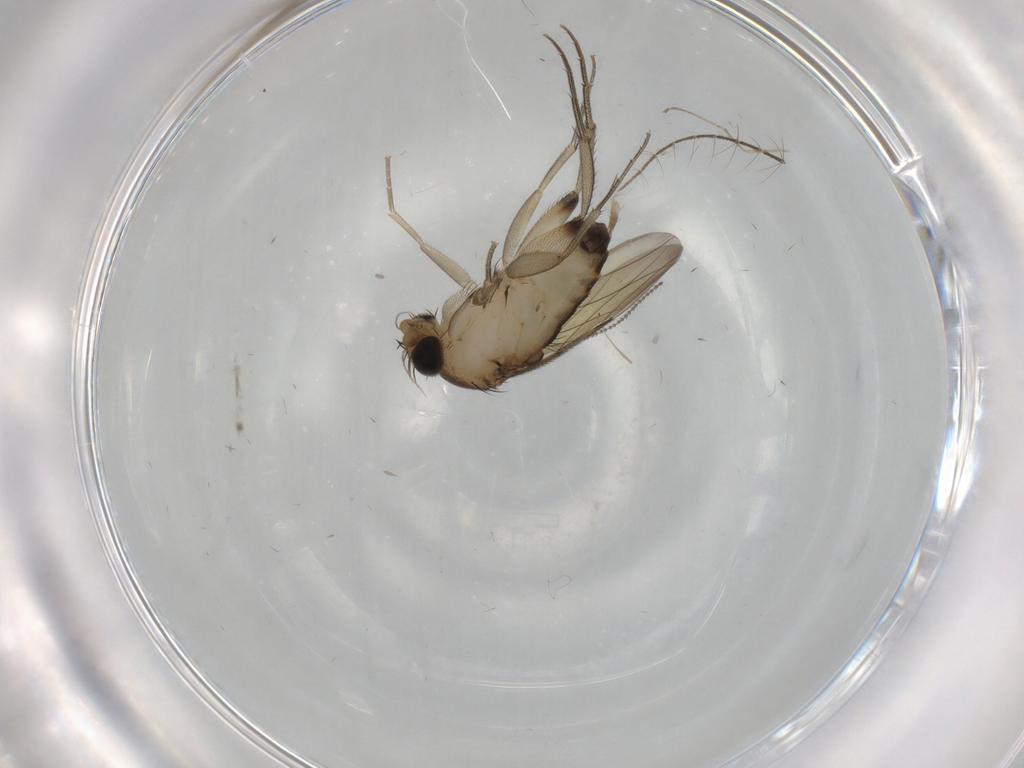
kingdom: Animalia
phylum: Arthropoda
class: Insecta
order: Diptera
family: Phoridae
